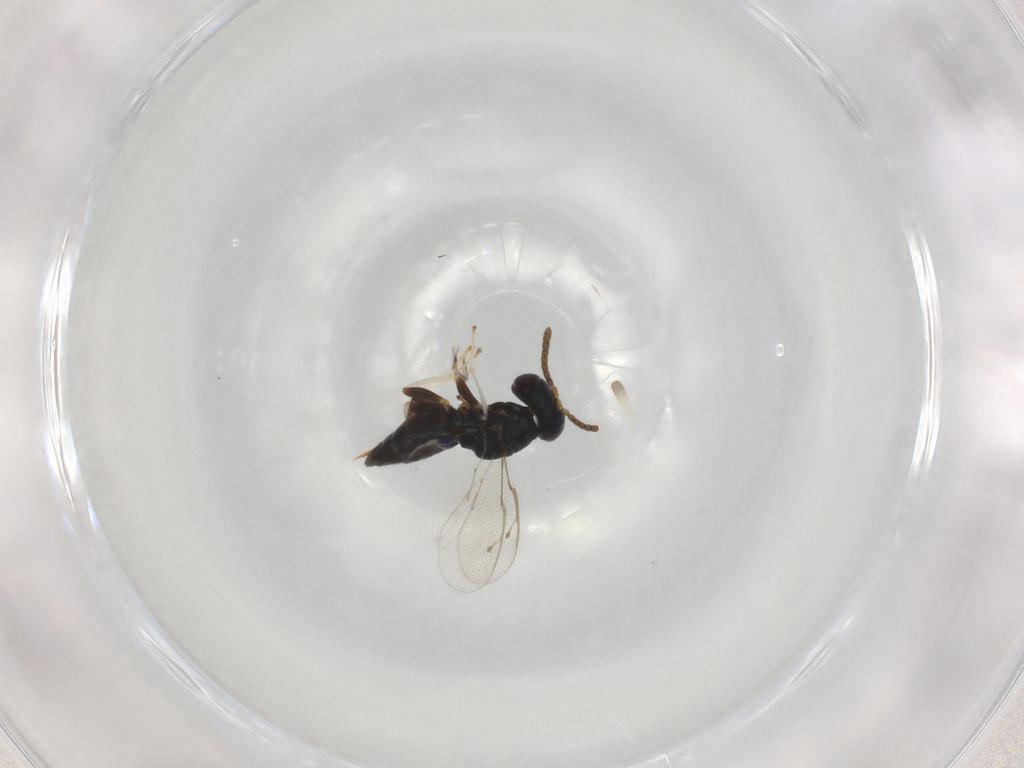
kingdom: Animalia
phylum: Arthropoda
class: Insecta
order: Hymenoptera
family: Pteromalidae
